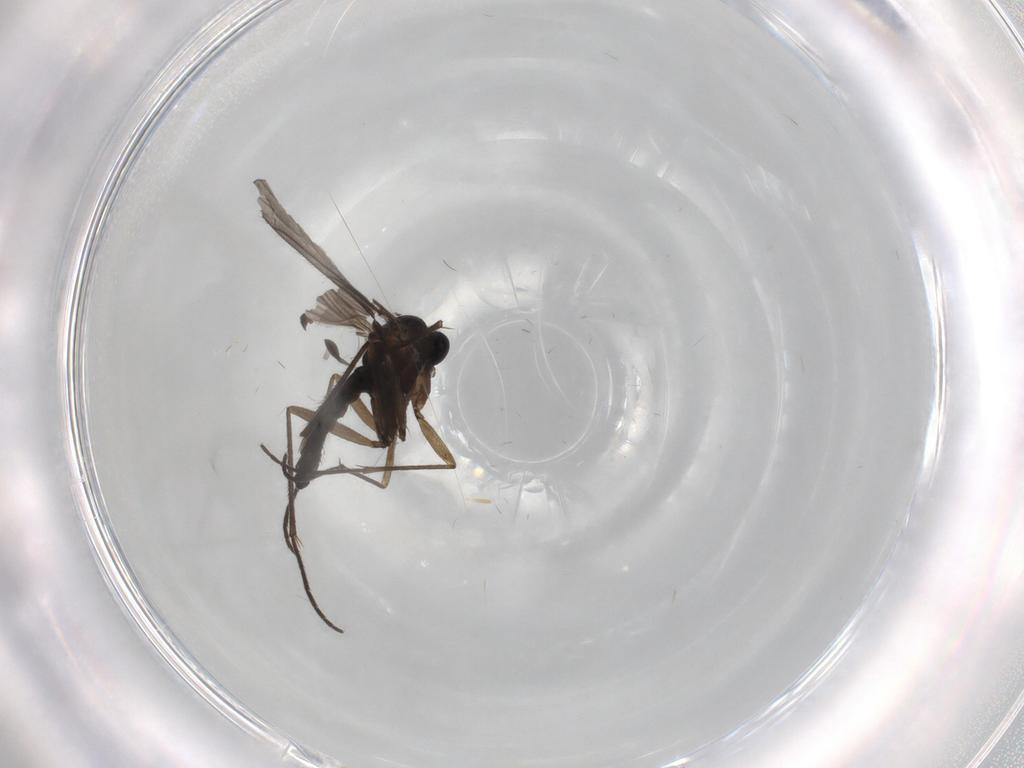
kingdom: Animalia
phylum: Arthropoda
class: Insecta
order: Diptera
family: Sciaridae
